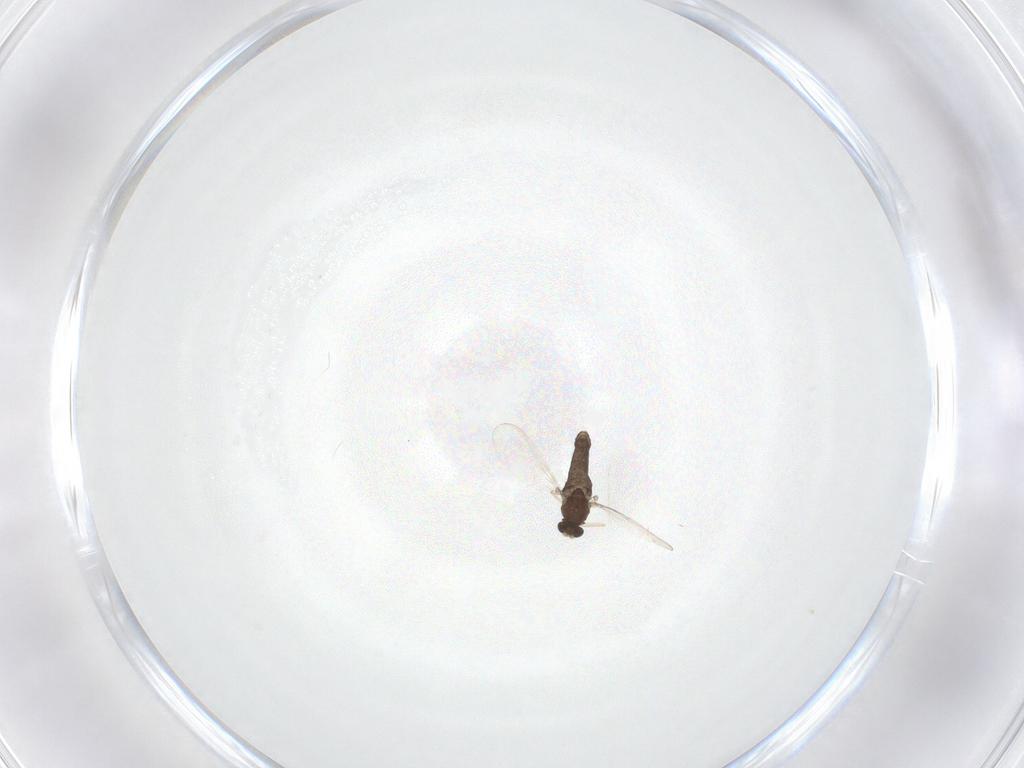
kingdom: Animalia
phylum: Arthropoda
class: Insecta
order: Diptera
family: Chironomidae
